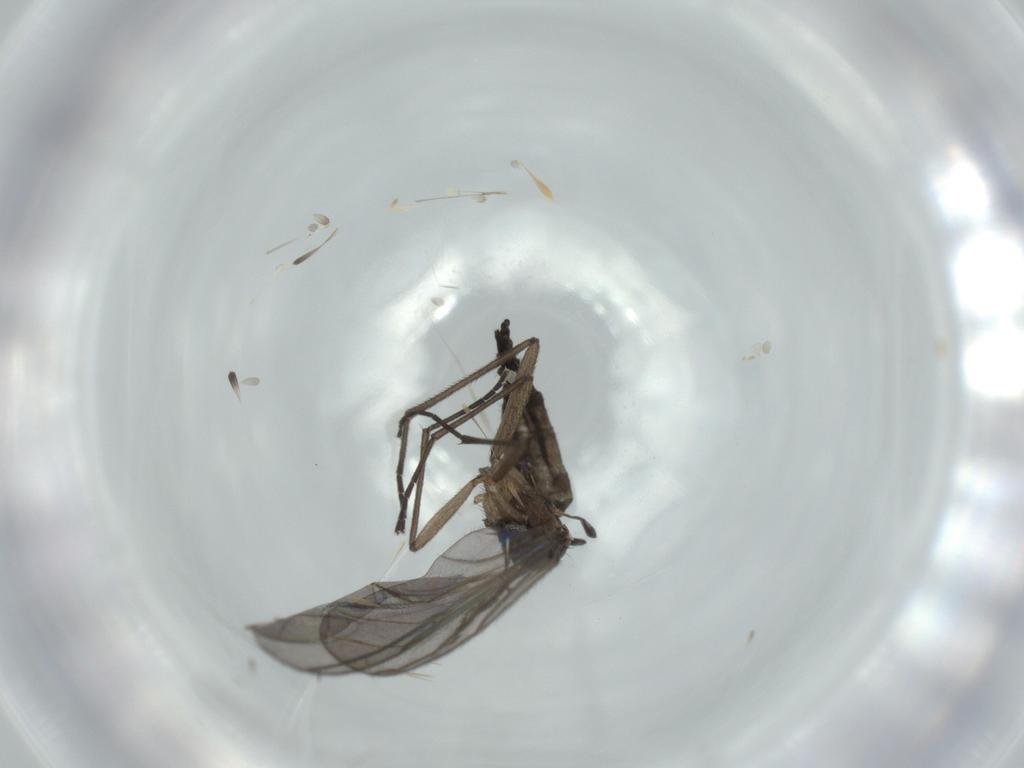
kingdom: Animalia
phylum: Arthropoda
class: Insecta
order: Diptera
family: Sciaridae
